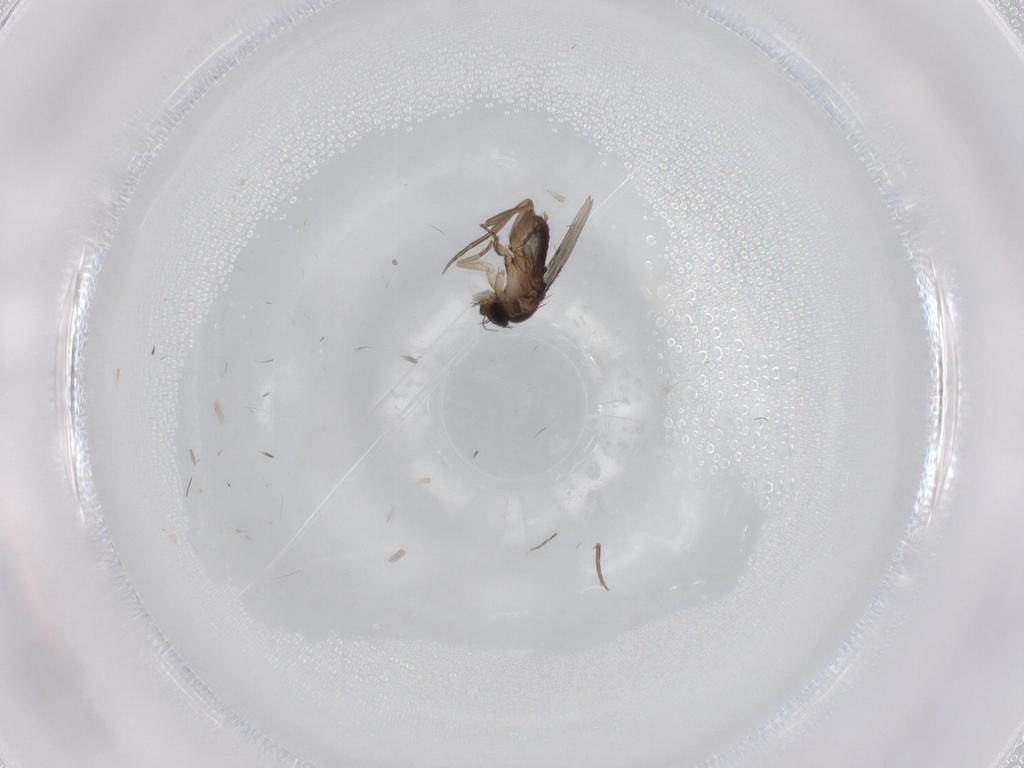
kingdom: Animalia
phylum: Arthropoda
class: Insecta
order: Diptera
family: Phoridae
